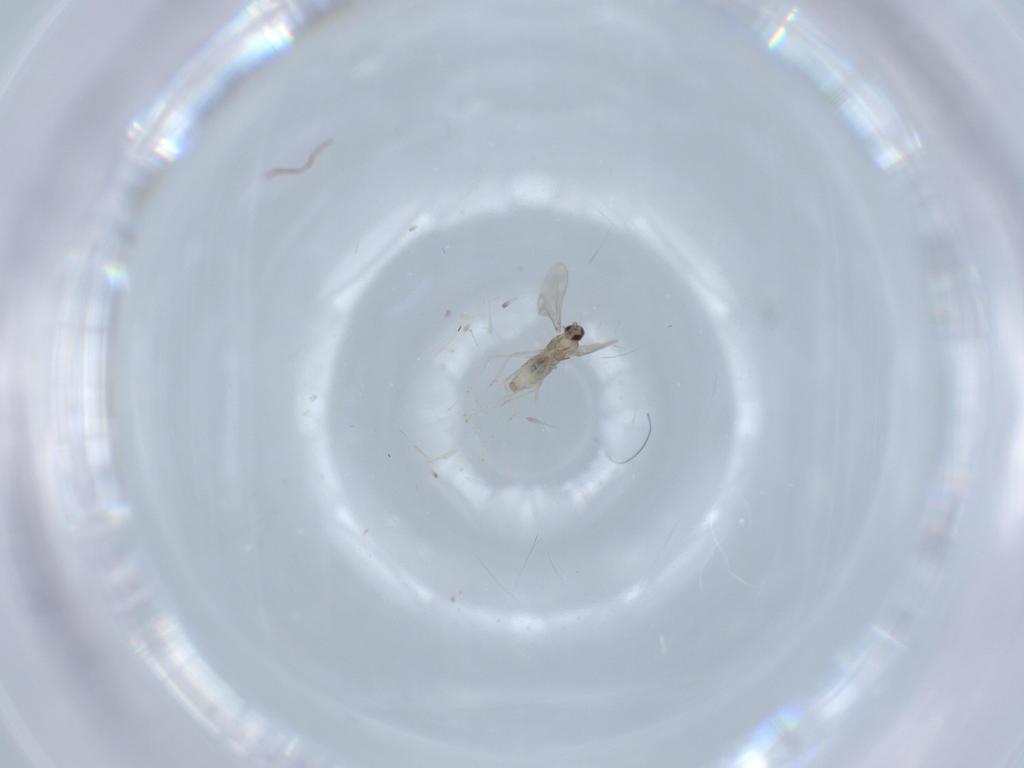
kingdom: Animalia
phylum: Arthropoda
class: Insecta
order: Diptera
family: Cecidomyiidae
